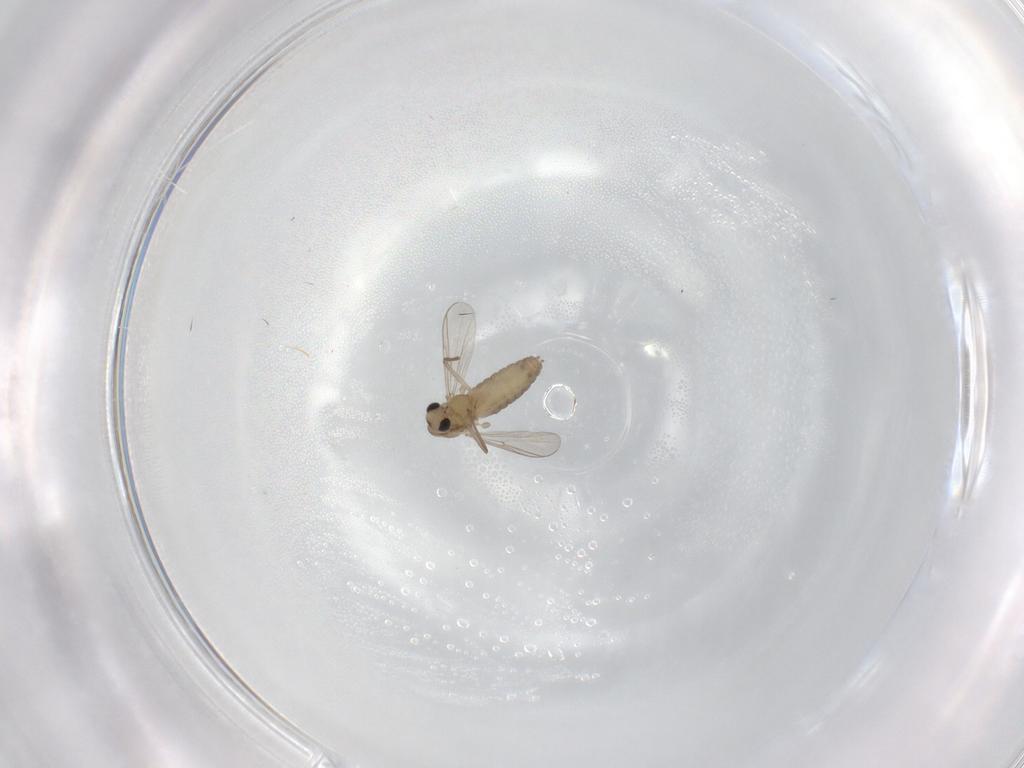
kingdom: Animalia
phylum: Arthropoda
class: Insecta
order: Diptera
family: Chironomidae
